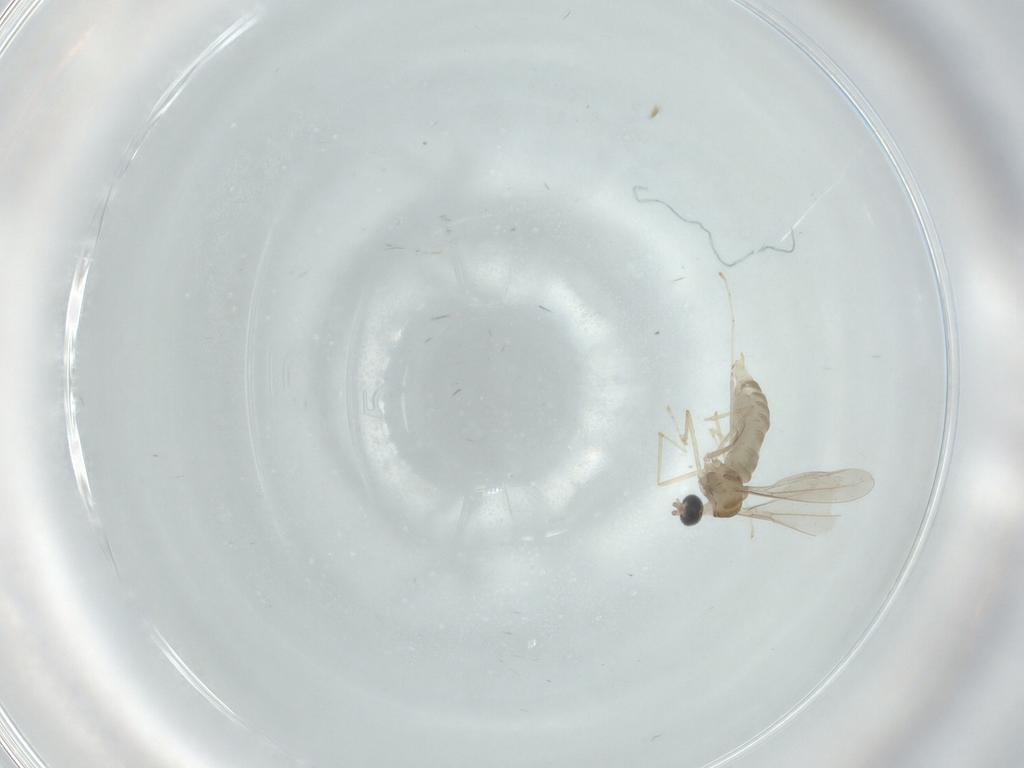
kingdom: Animalia
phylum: Arthropoda
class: Insecta
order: Diptera
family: Cecidomyiidae
